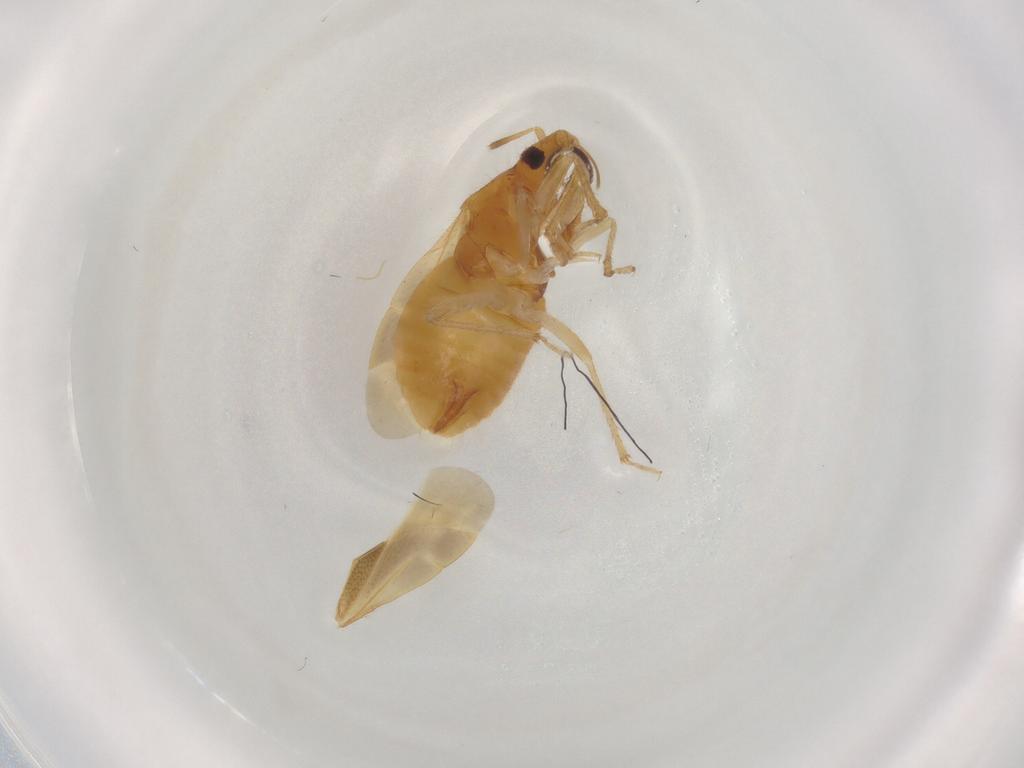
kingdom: Animalia
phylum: Arthropoda
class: Insecta
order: Hemiptera
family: Lasiochilidae
